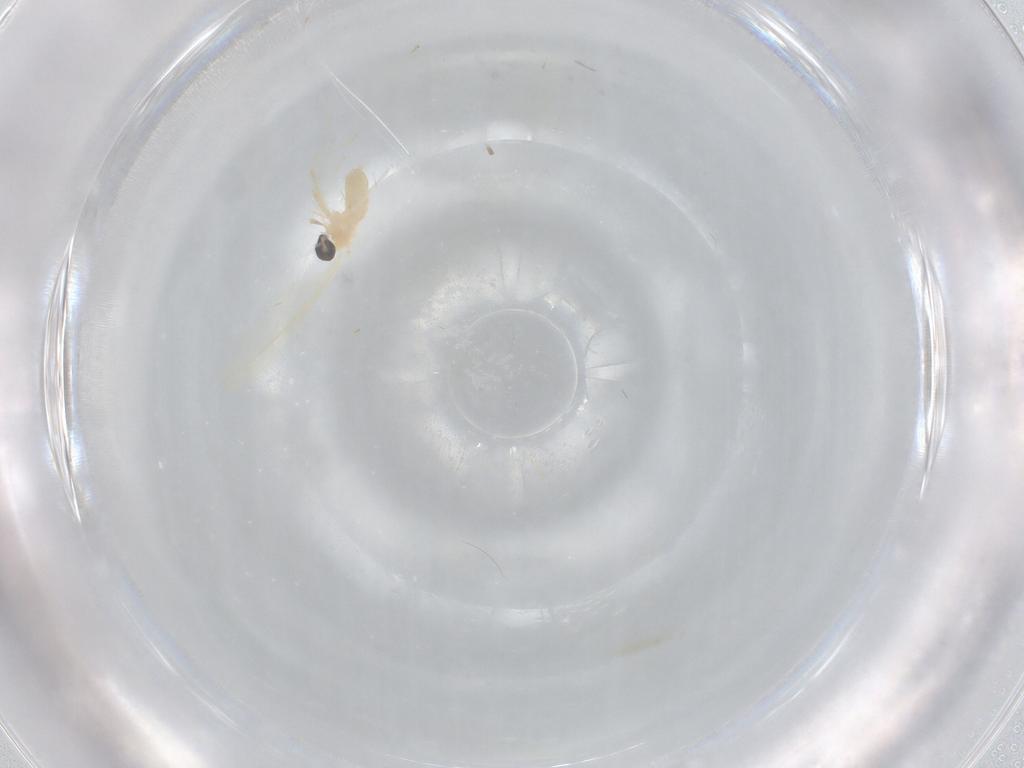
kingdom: Animalia
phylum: Arthropoda
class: Insecta
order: Diptera
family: Cecidomyiidae
